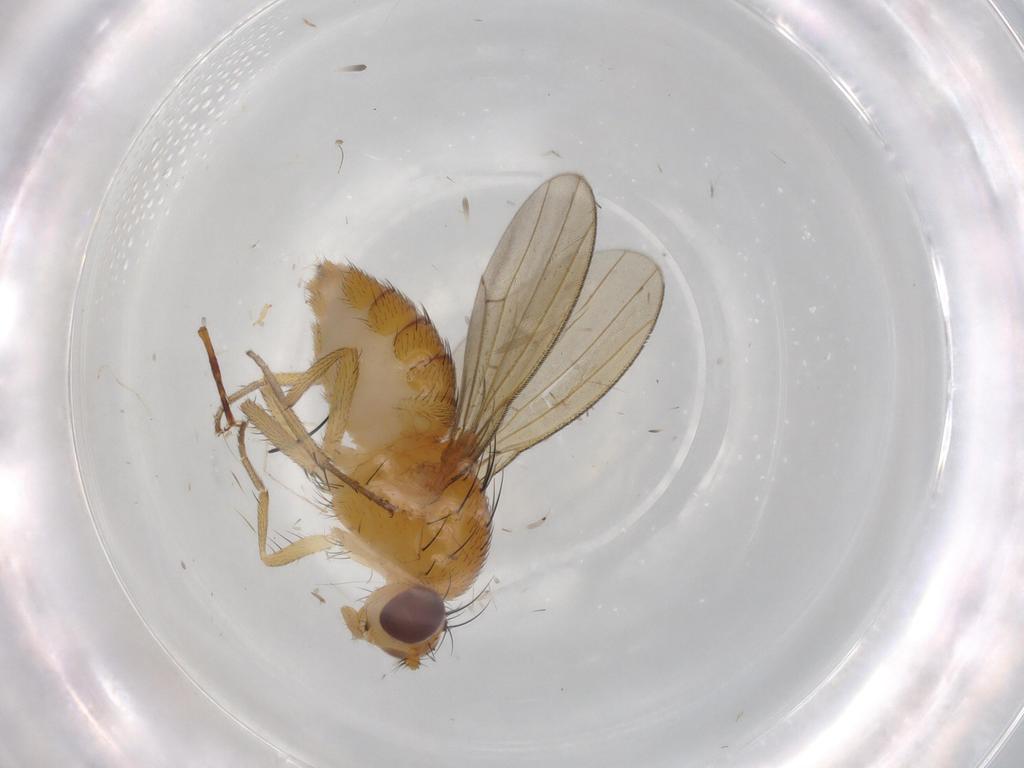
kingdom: Animalia
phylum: Arthropoda
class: Insecta
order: Diptera
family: Lauxaniidae
